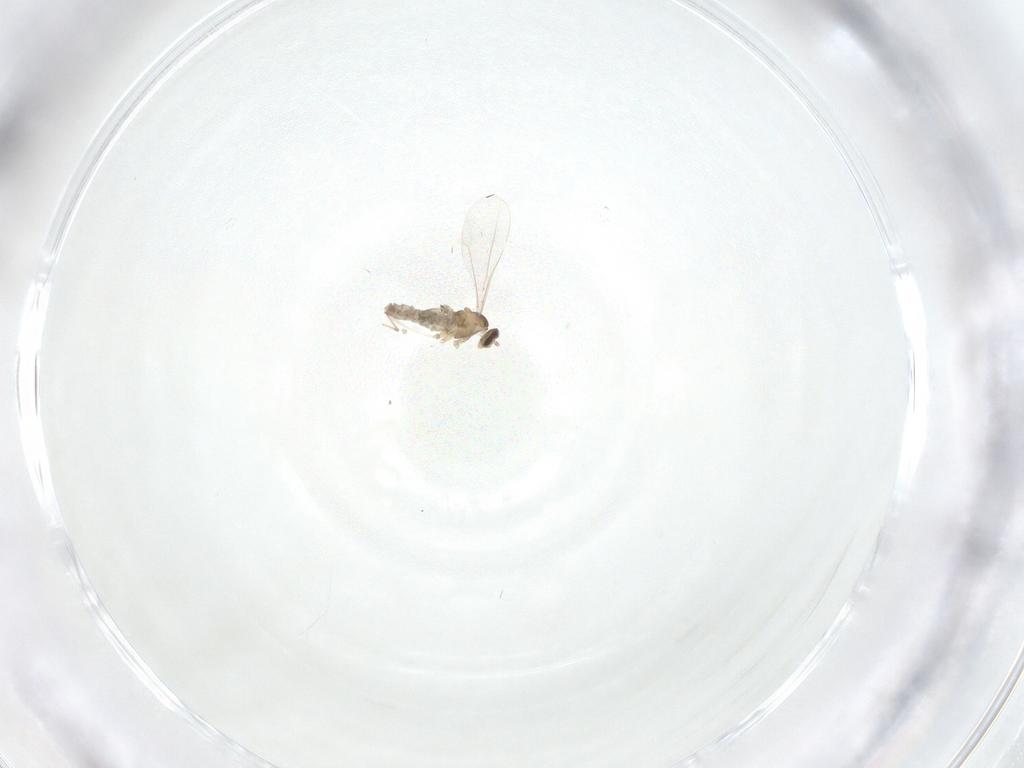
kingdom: Animalia
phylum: Arthropoda
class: Insecta
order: Diptera
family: Cecidomyiidae
